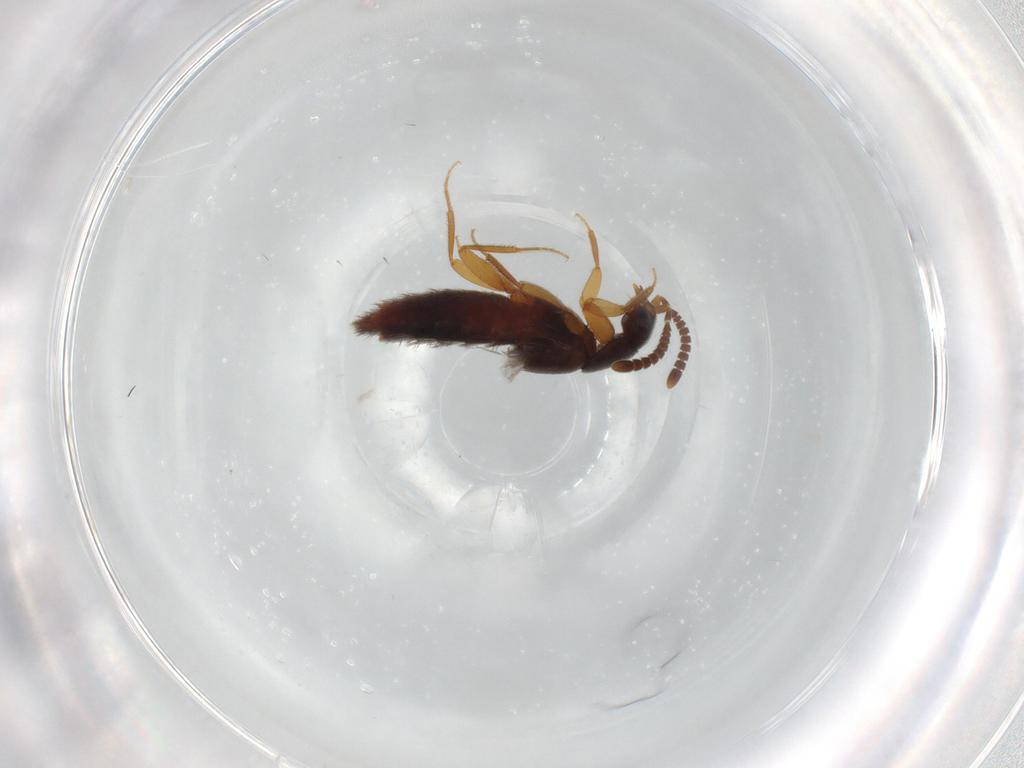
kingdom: Animalia
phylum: Arthropoda
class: Insecta
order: Coleoptera
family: Staphylinidae
